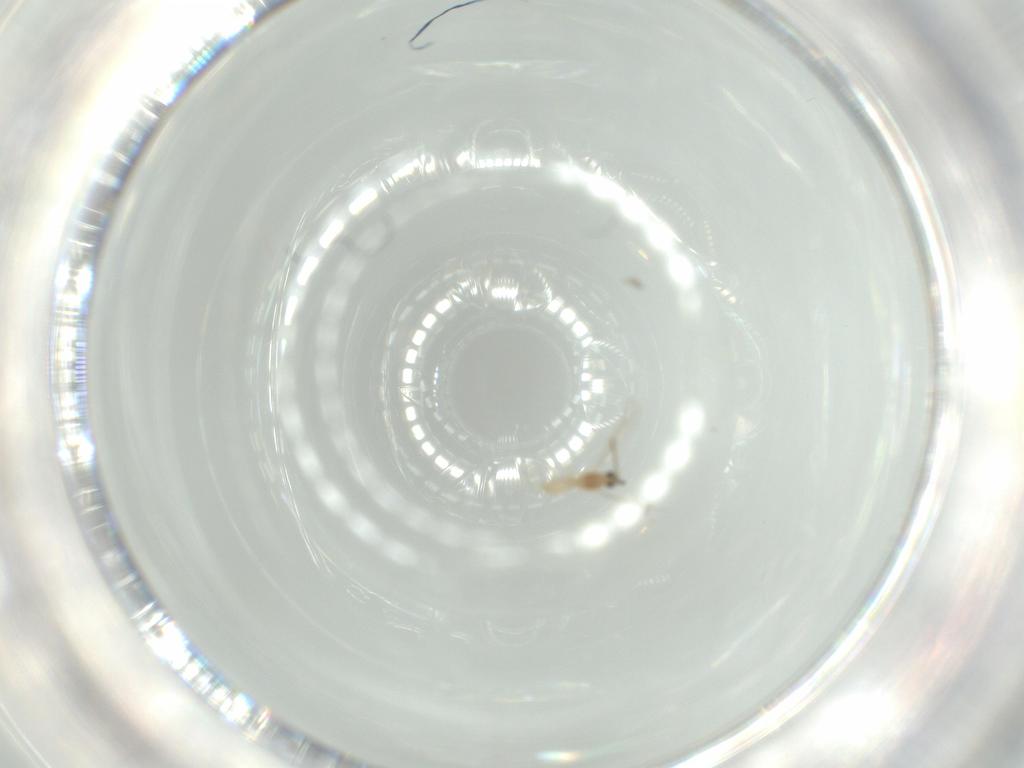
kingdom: Animalia
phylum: Arthropoda
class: Insecta
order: Diptera
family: Cecidomyiidae
